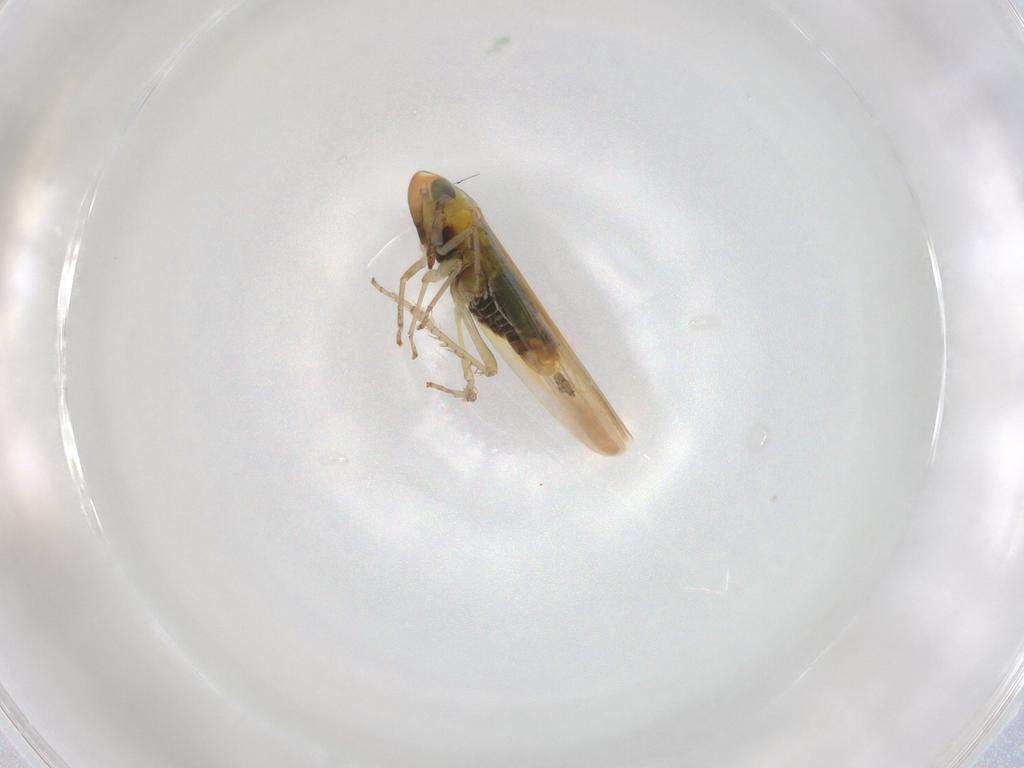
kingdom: Animalia
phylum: Arthropoda
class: Insecta
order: Hemiptera
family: Cicadellidae
